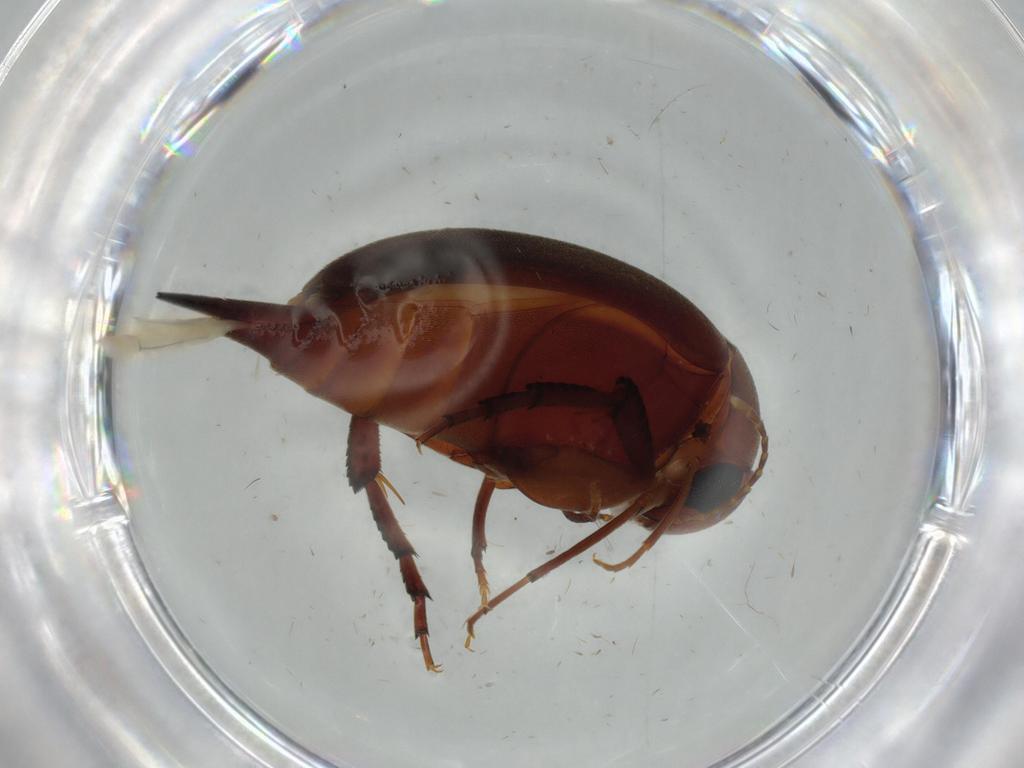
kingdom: Animalia
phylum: Arthropoda
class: Insecta
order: Coleoptera
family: Mordellidae
